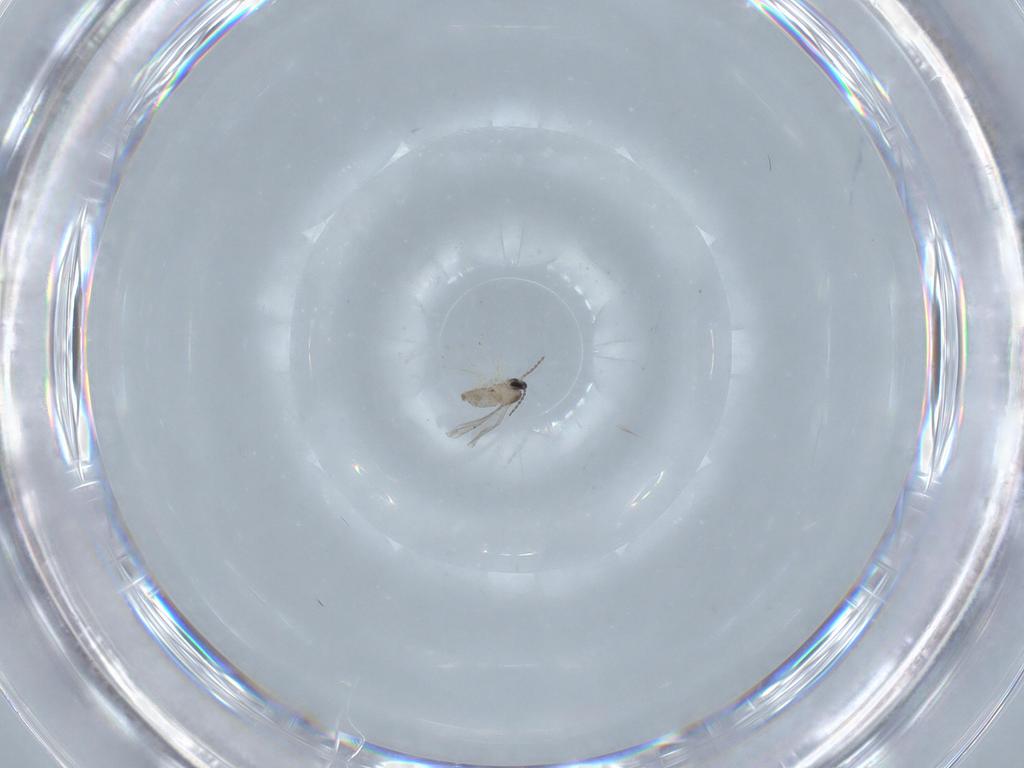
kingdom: Animalia
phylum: Arthropoda
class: Insecta
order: Diptera
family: Cecidomyiidae
